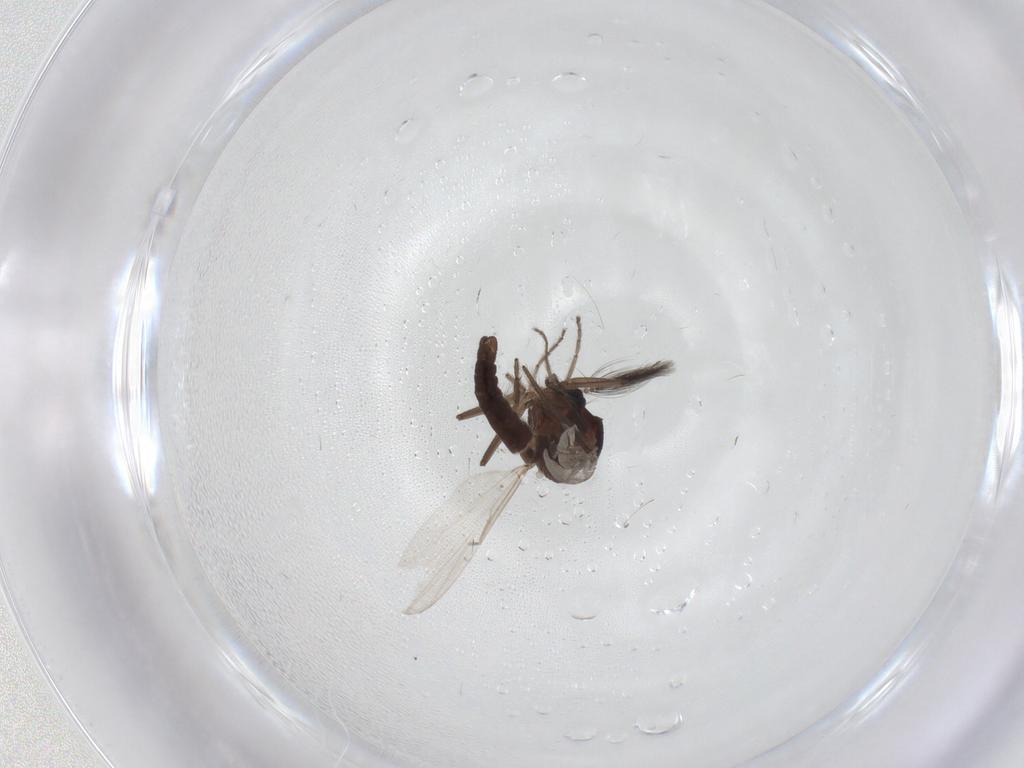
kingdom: Animalia
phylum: Arthropoda
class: Insecta
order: Diptera
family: Ceratopogonidae
